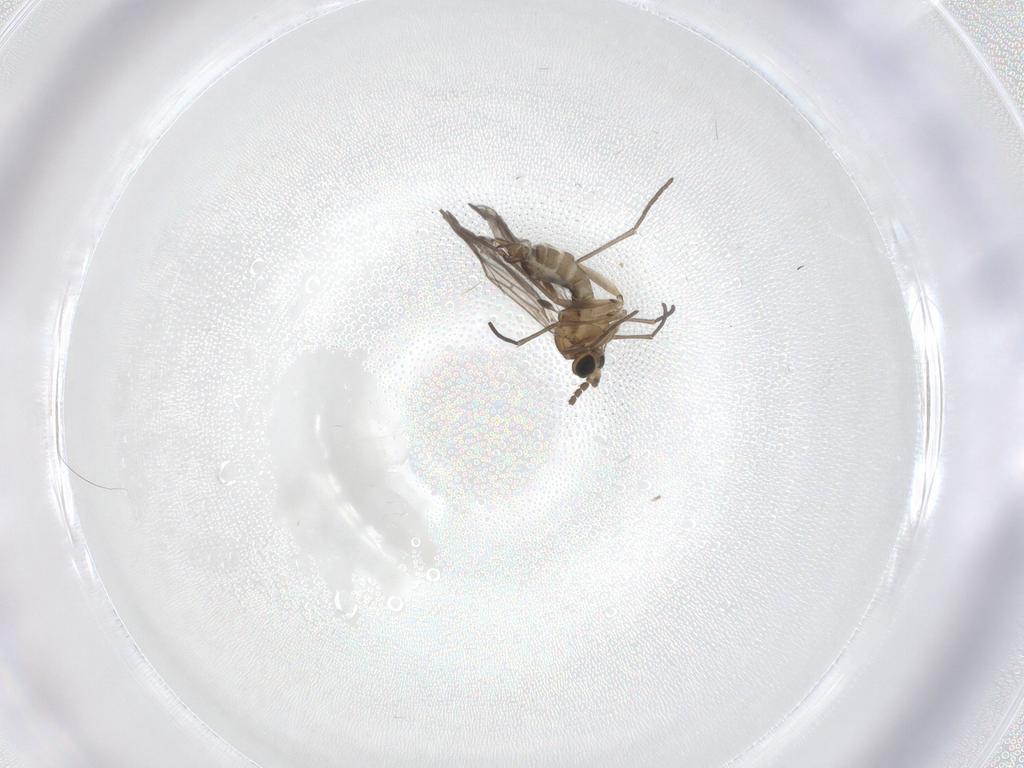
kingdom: Animalia
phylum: Arthropoda
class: Insecta
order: Diptera
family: Sciaridae
